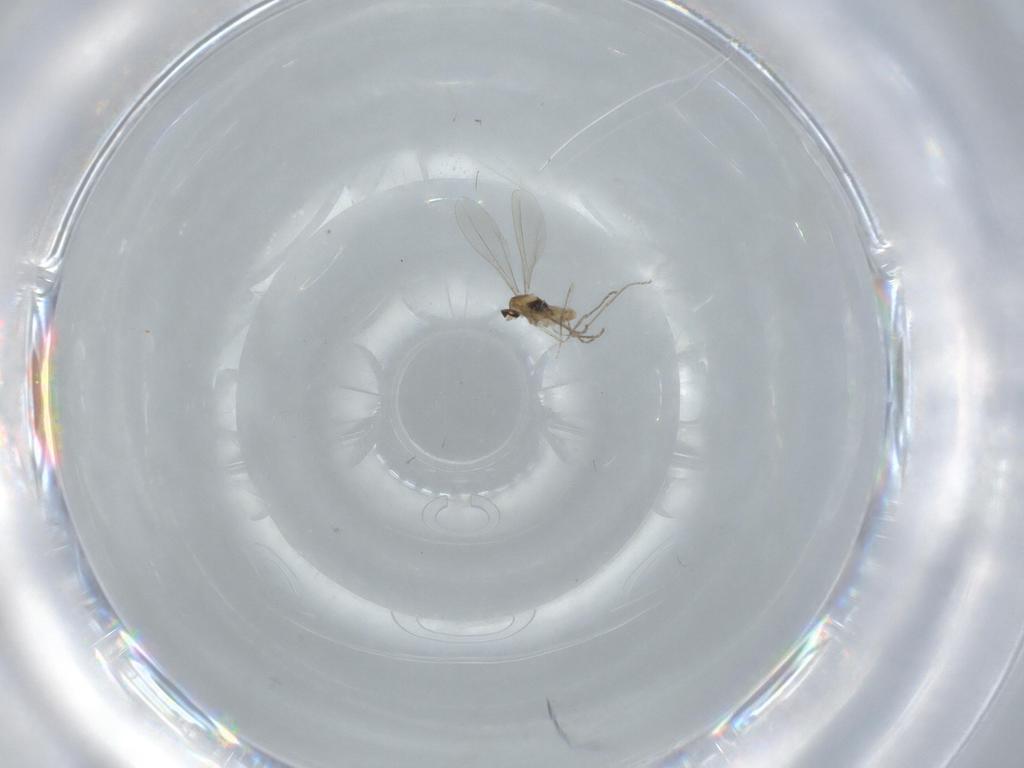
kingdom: Animalia
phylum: Arthropoda
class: Insecta
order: Diptera
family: Cecidomyiidae
